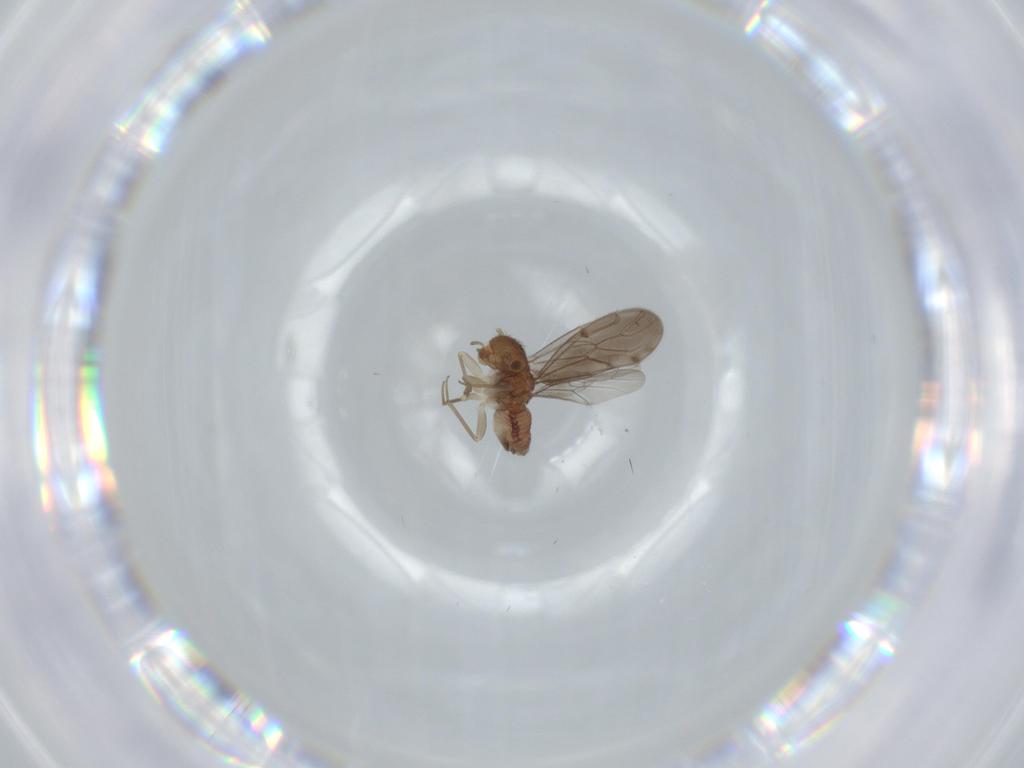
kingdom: Animalia
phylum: Arthropoda
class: Insecta
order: Psocodea
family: Ectopsocidae
